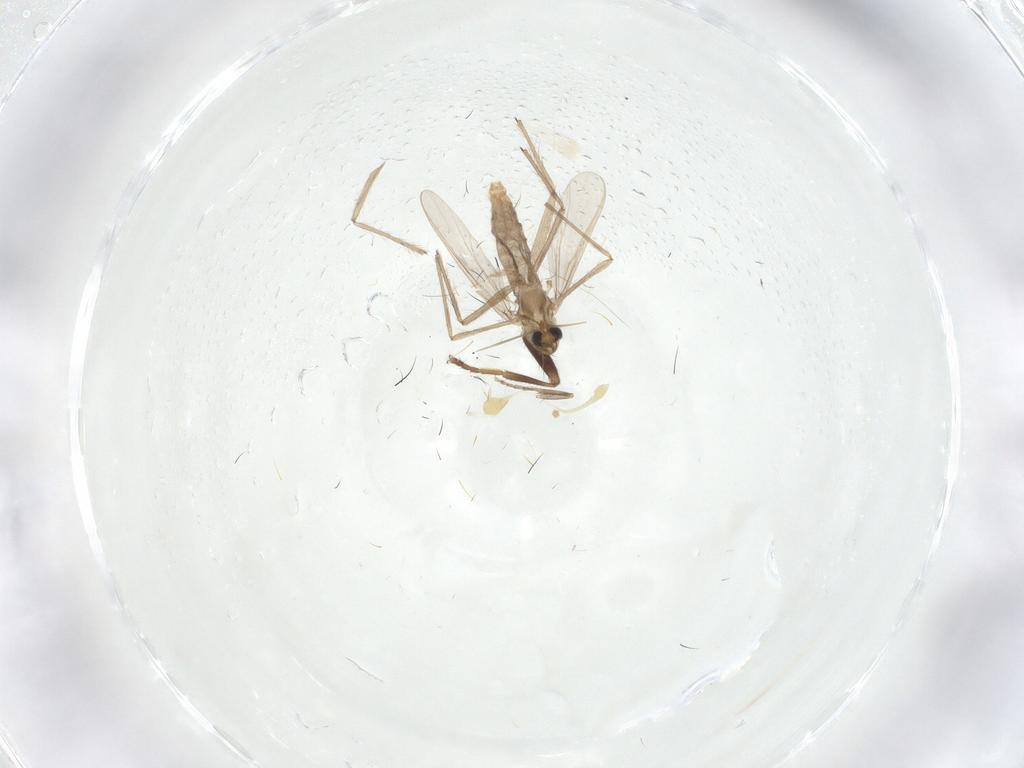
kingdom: Animalia
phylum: Arthropoda
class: Insecta
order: Diptera
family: Chironomidae
